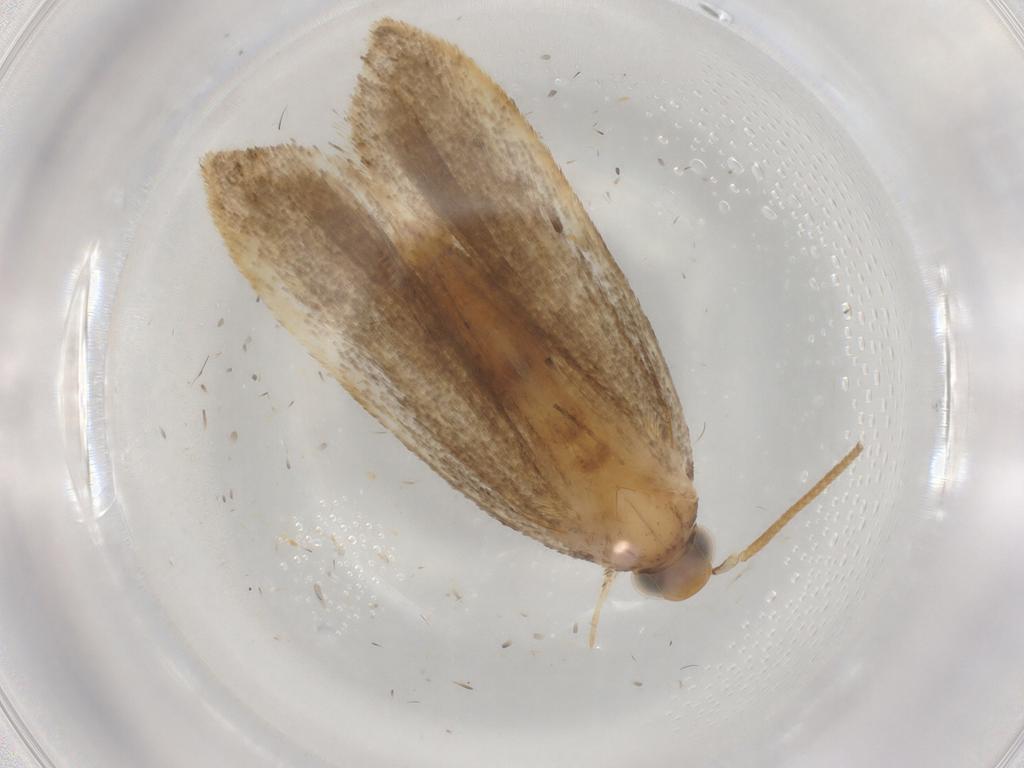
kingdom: Animalia
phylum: Arthropoda
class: Insecta
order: Lepidoptera
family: Autostichidae
